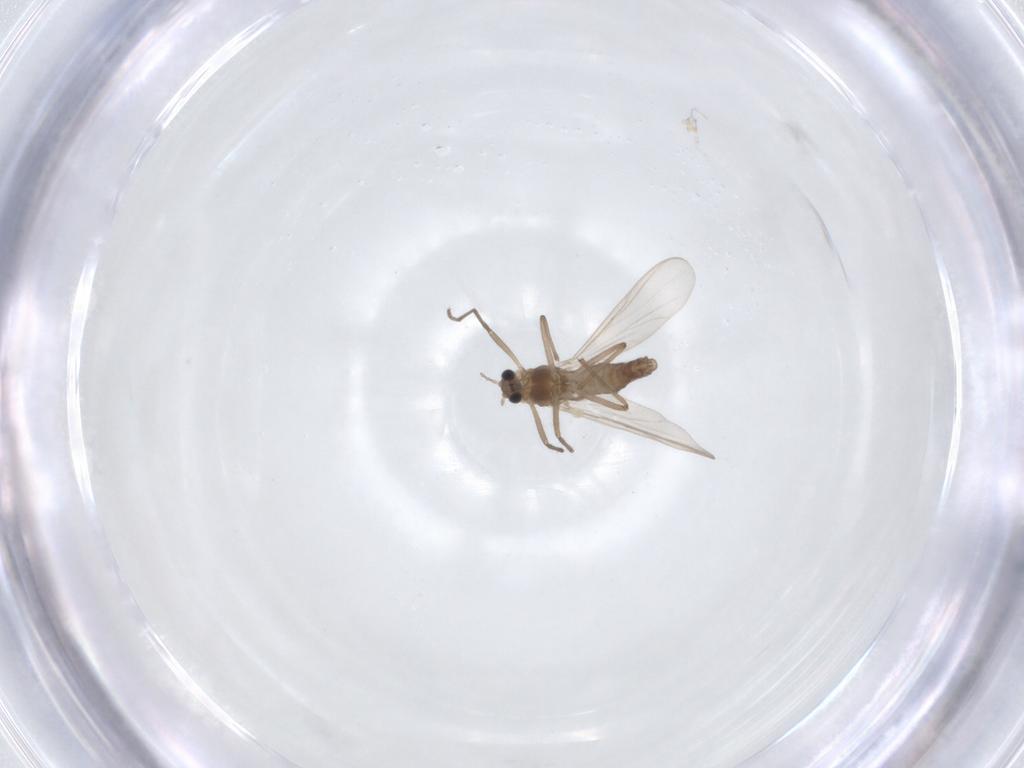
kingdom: Animalia
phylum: Arthropoda
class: Insecta
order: Diptera
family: Chironomidae
